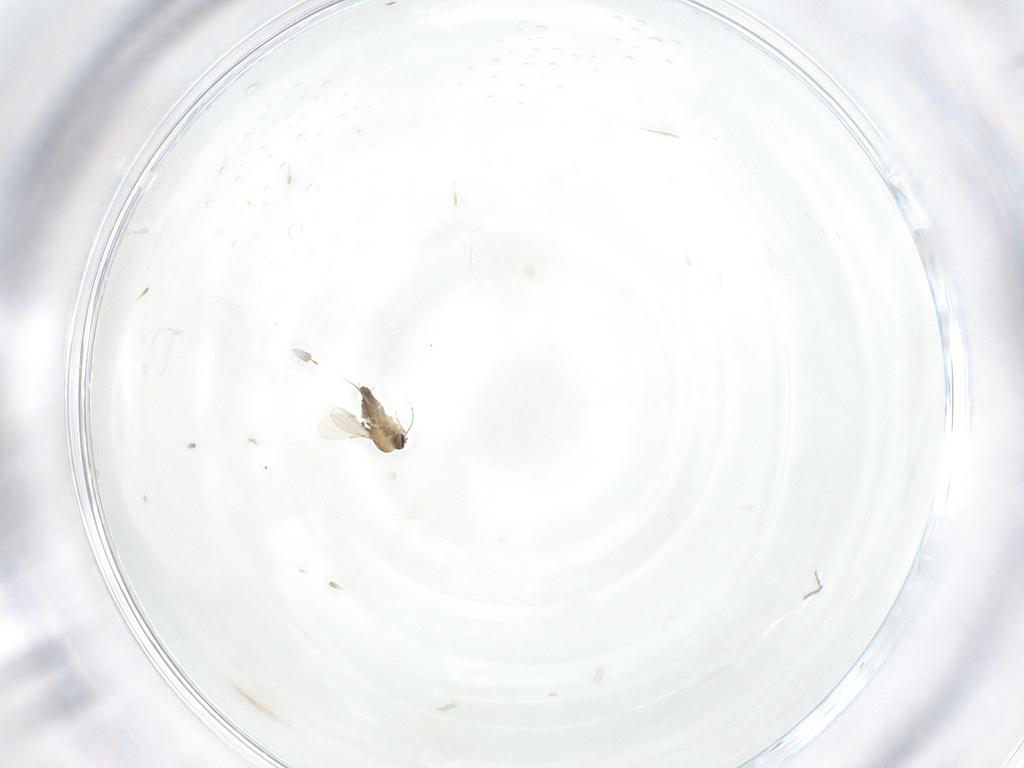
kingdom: Animalia
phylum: Arthropoda
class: Insecta
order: Diptera
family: Ceratopogonidae
